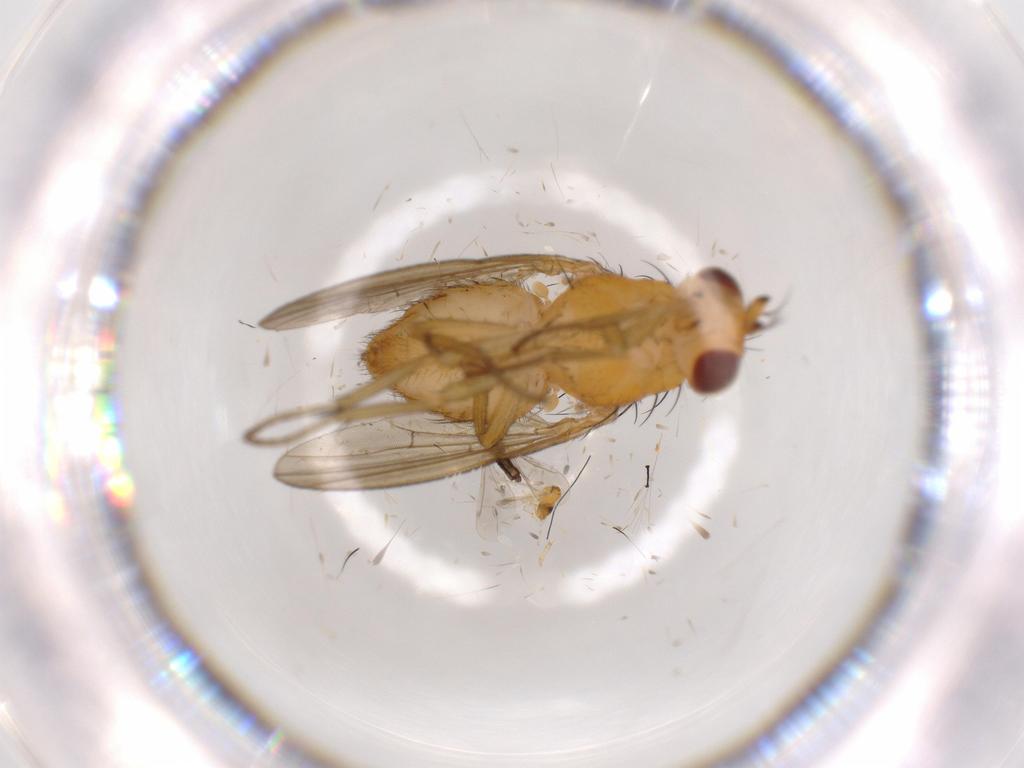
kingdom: Animalia
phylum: Arthropoda
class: Insecta
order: Diptera
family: Lauxaniidae
